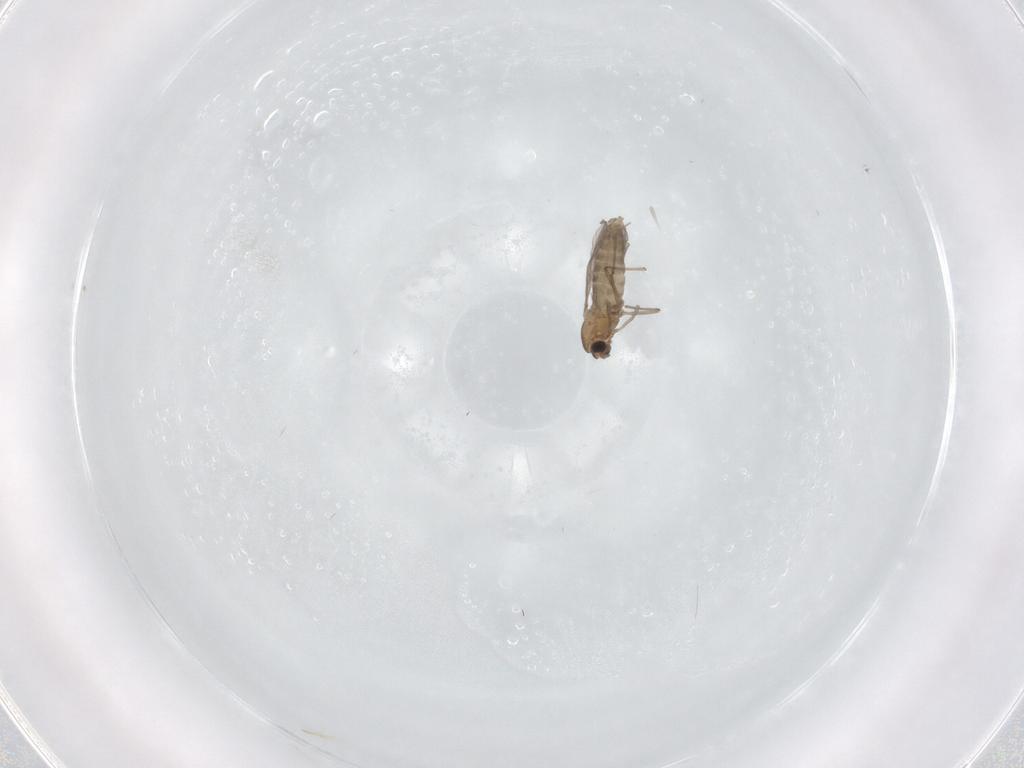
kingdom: Animalia
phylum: Arthropoda
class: Insecta
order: Diptera
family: Chironomidae
